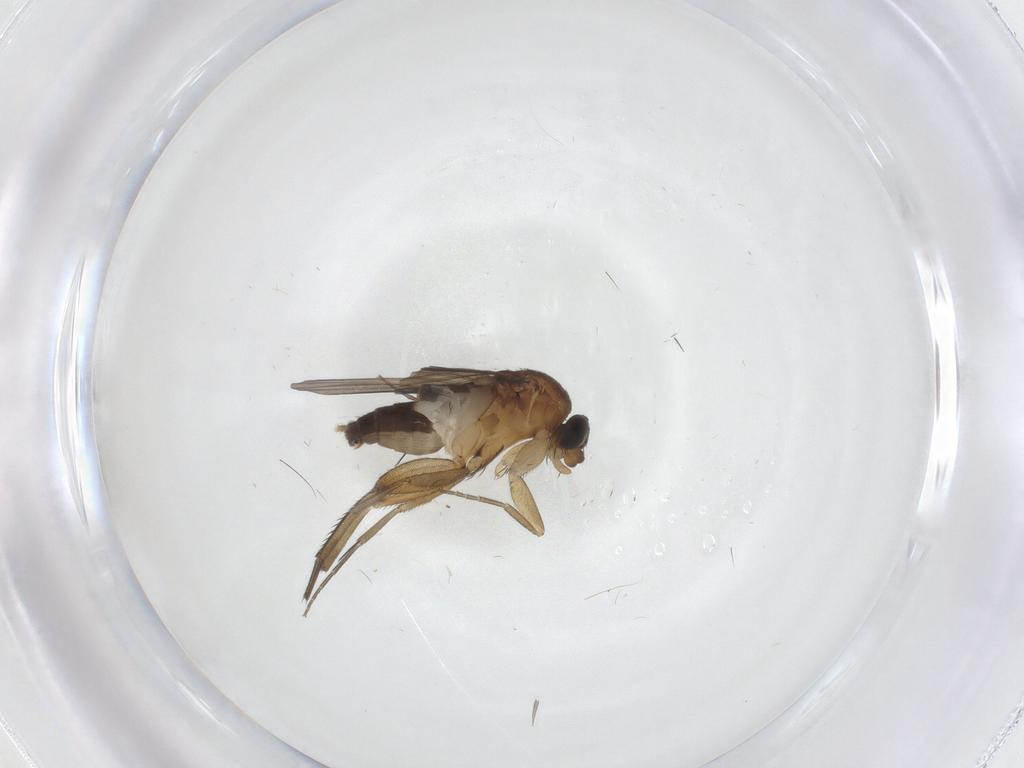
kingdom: Animalia
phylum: Arthropoda
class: Insecta
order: Diptera
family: Phoridae
